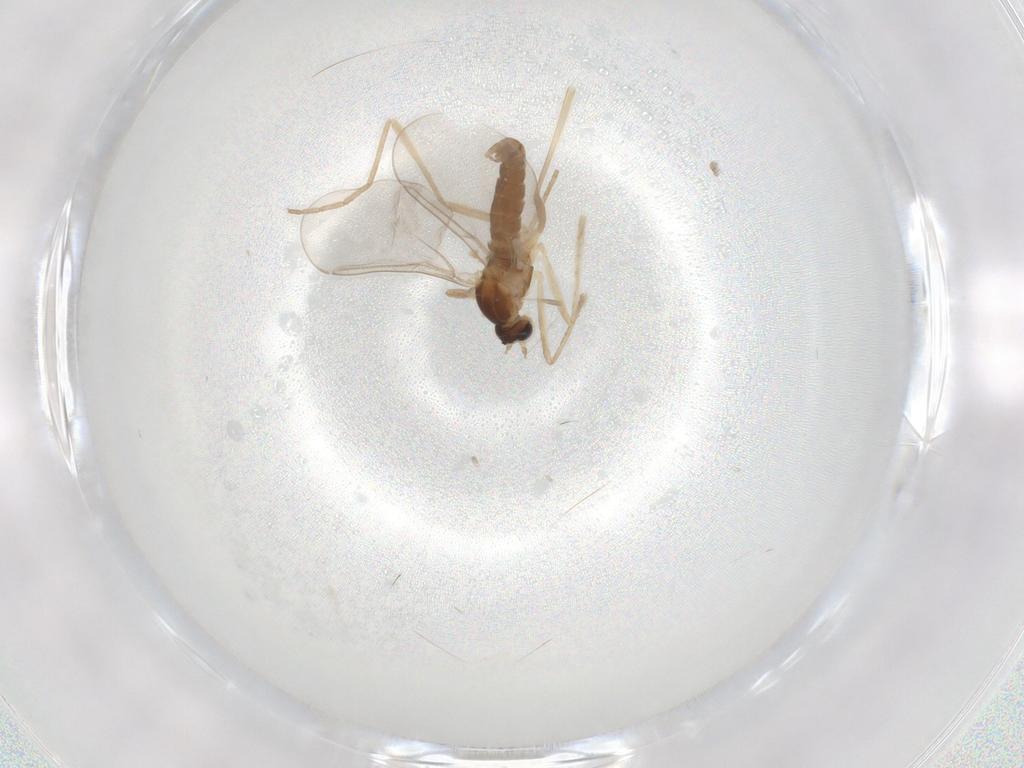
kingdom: Animalia
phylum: Arthropoda
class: Insecta
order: Diptera
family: Cecidomyiidae
